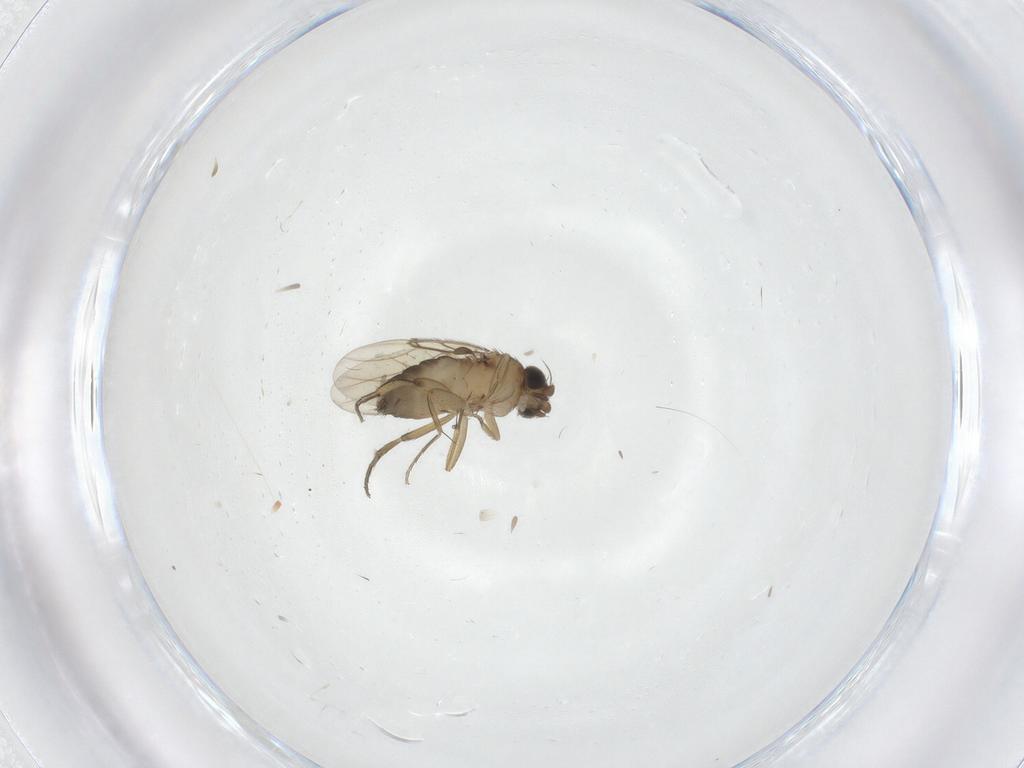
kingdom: Animalia
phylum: Arthropoda
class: Insecta
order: Diptera
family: Phoridae
